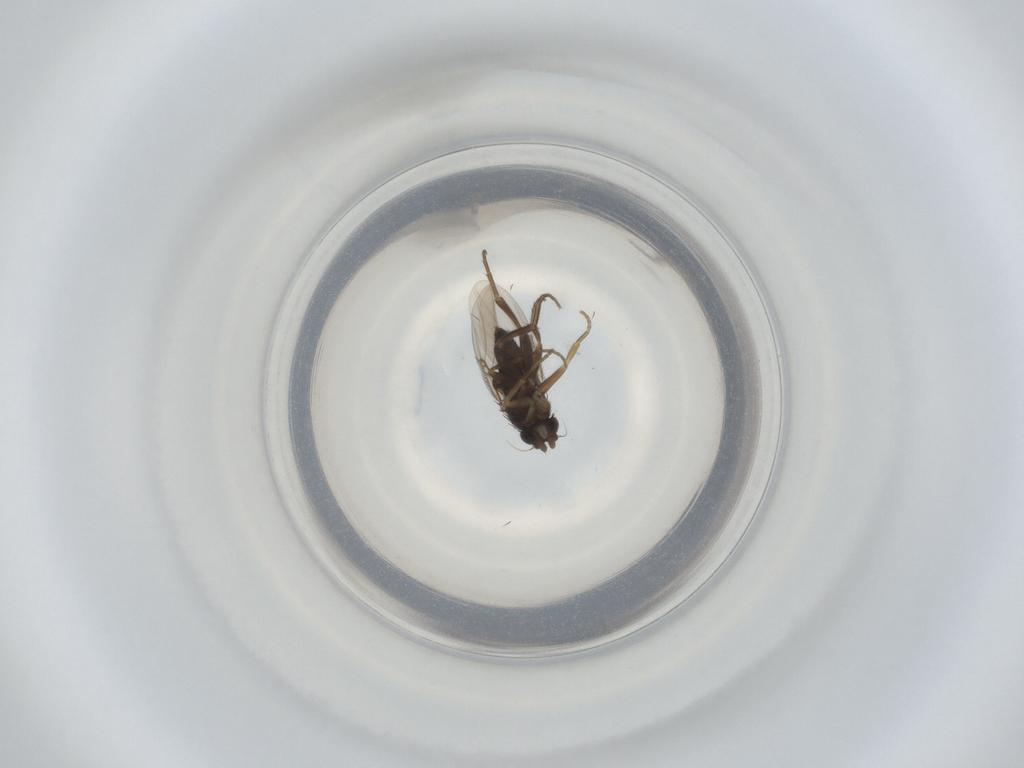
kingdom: Animalia
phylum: Arthropoda
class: Insecta
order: Diptera
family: Phoridae
